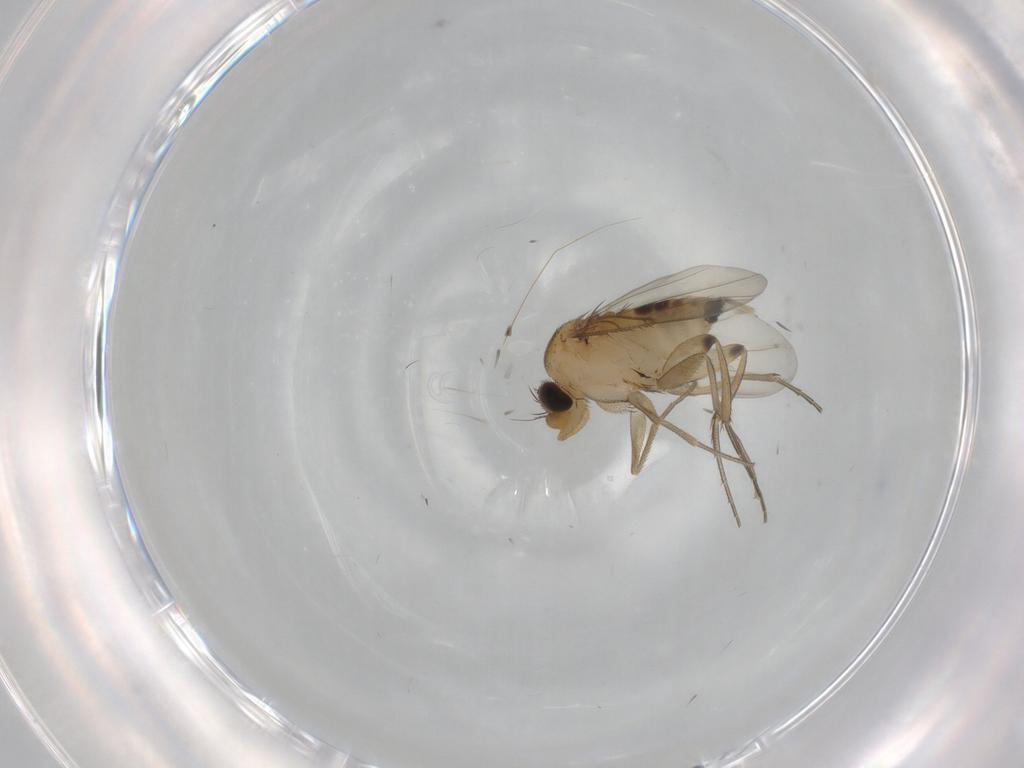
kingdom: Animalia
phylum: Arthropoda
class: Insecta
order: Diptera
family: Phoridae
